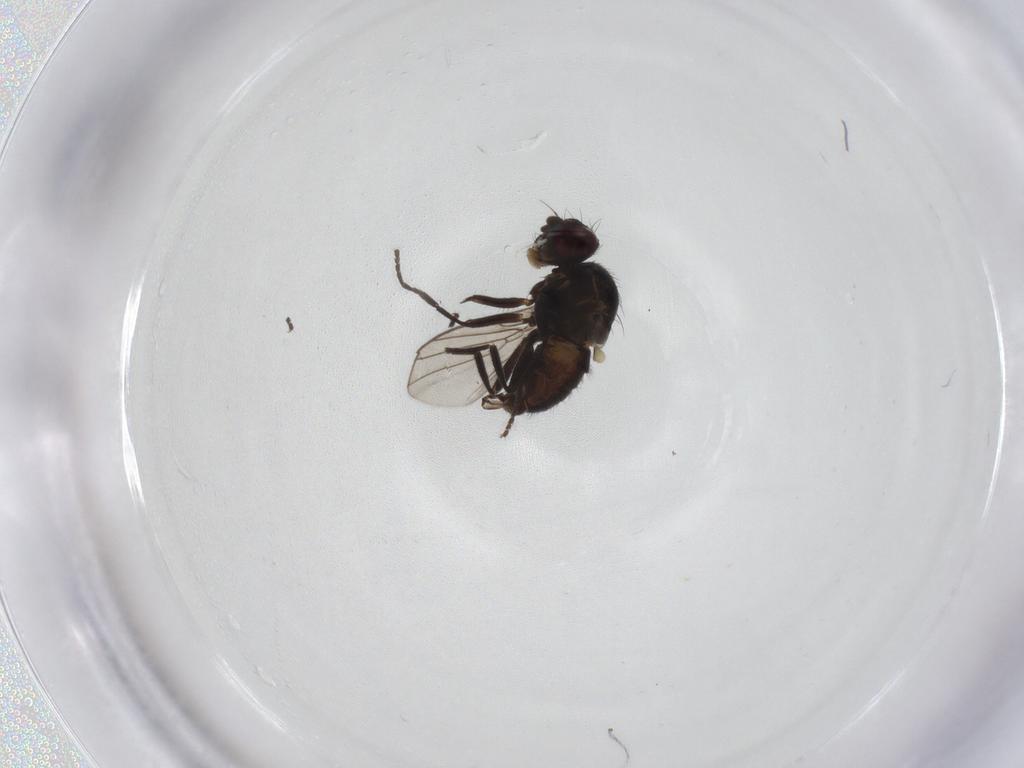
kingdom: Animalia
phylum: Arthropoda
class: Insecta
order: Diptera
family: Agromyzidae
